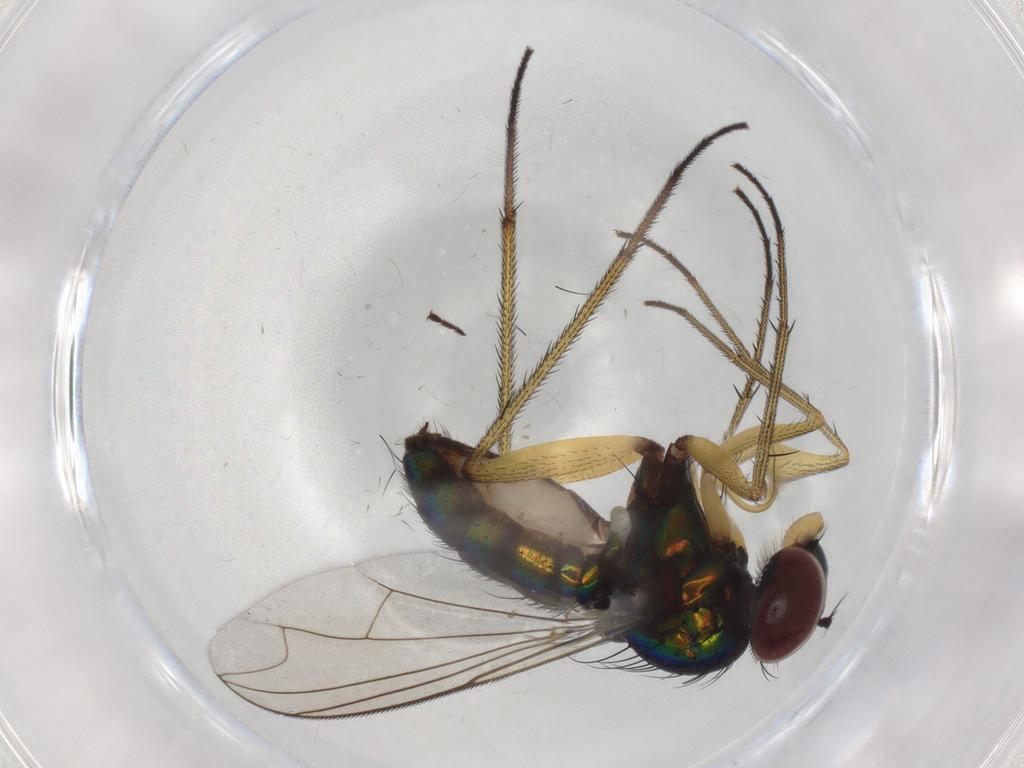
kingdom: Animalia
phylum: Arthropoda
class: Insecta
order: Diptera
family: Dolichopodidae
